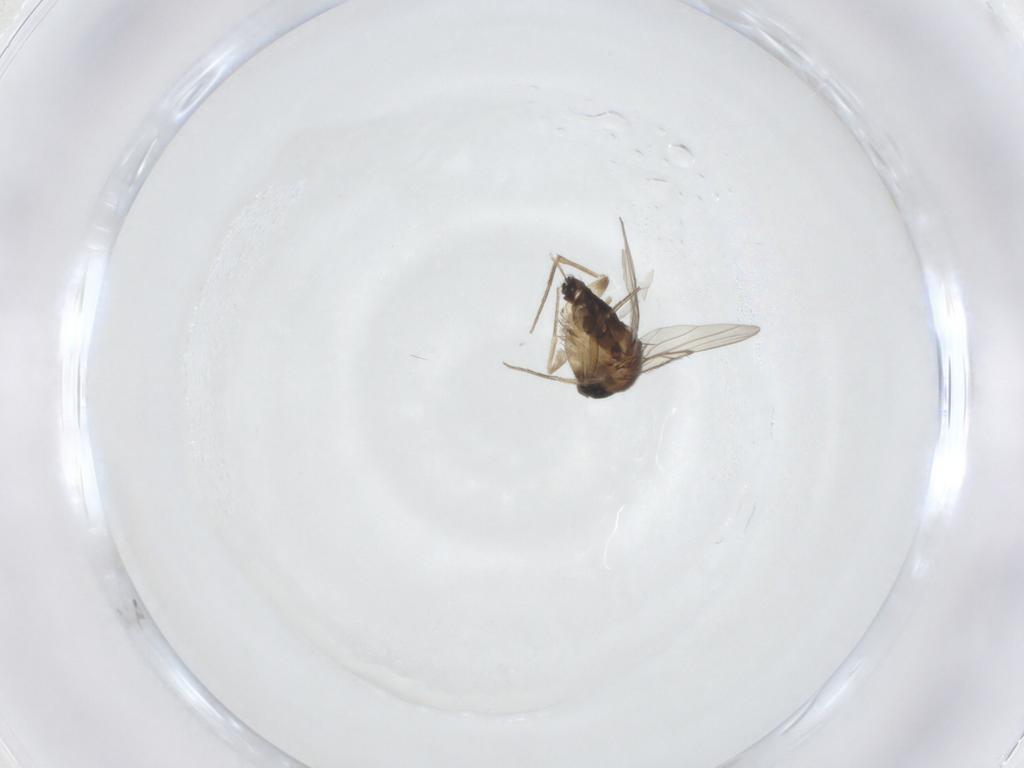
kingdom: Animalia
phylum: Arthropoda
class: Insecta
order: Diptera
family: Phoridae
